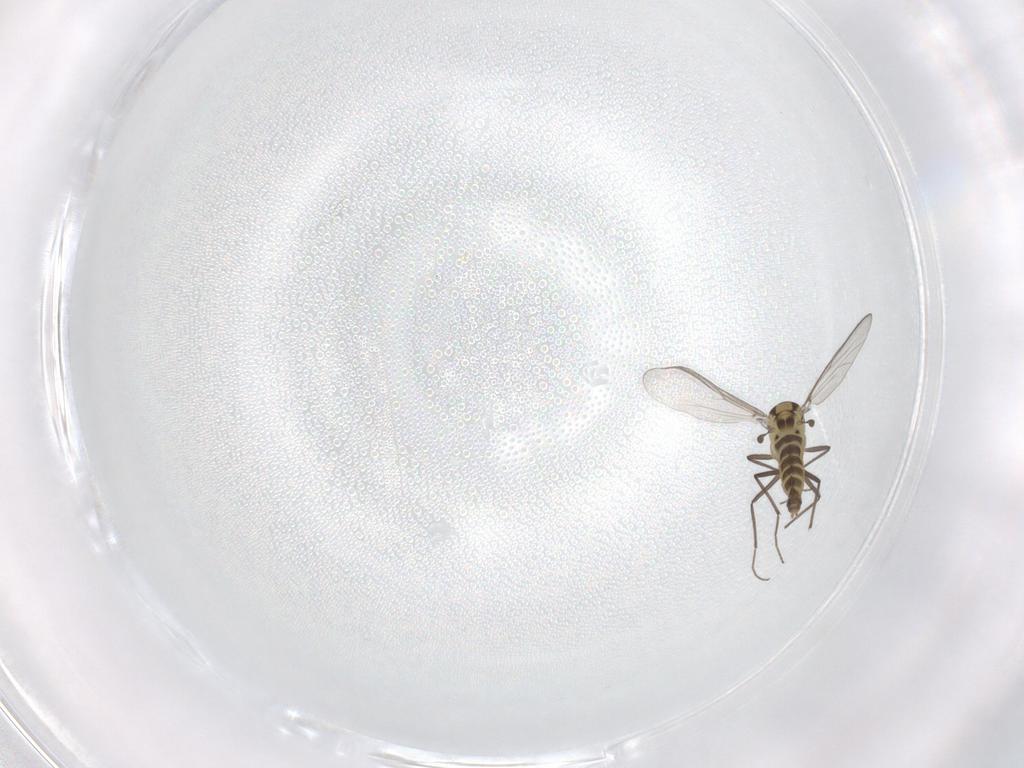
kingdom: Animalia
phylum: Arthropoda
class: Insecta
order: Diptera
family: Chironomidae
